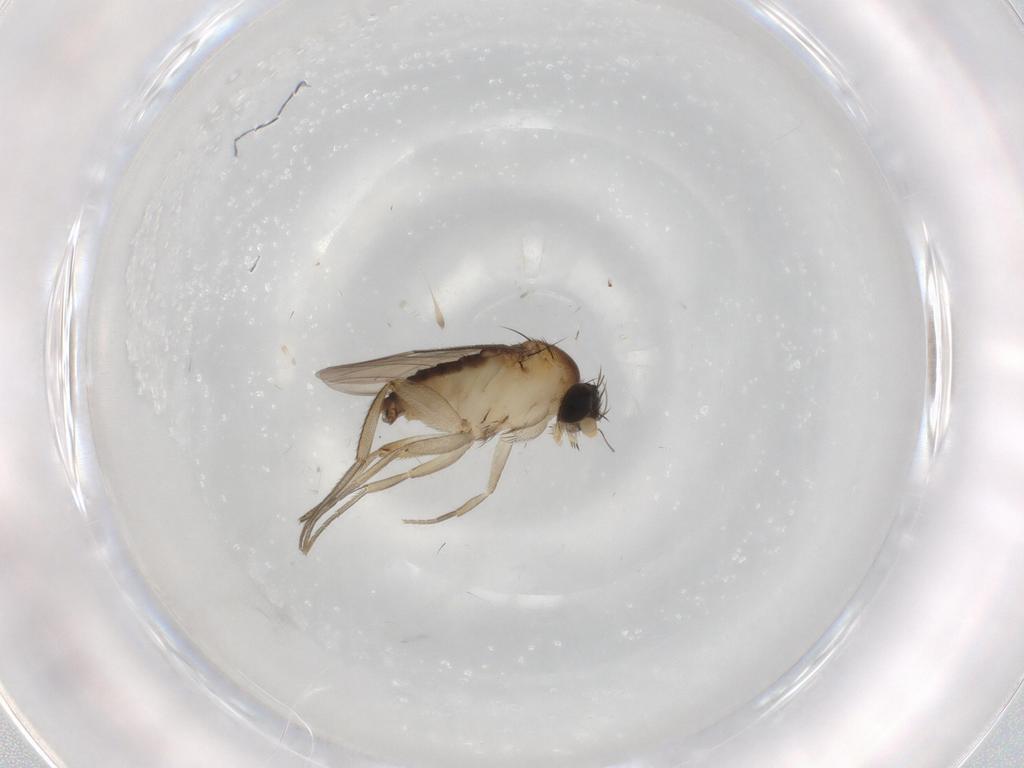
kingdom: Animalia
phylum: Arthropoda
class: Insecta
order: Diptera
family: Phoridae
